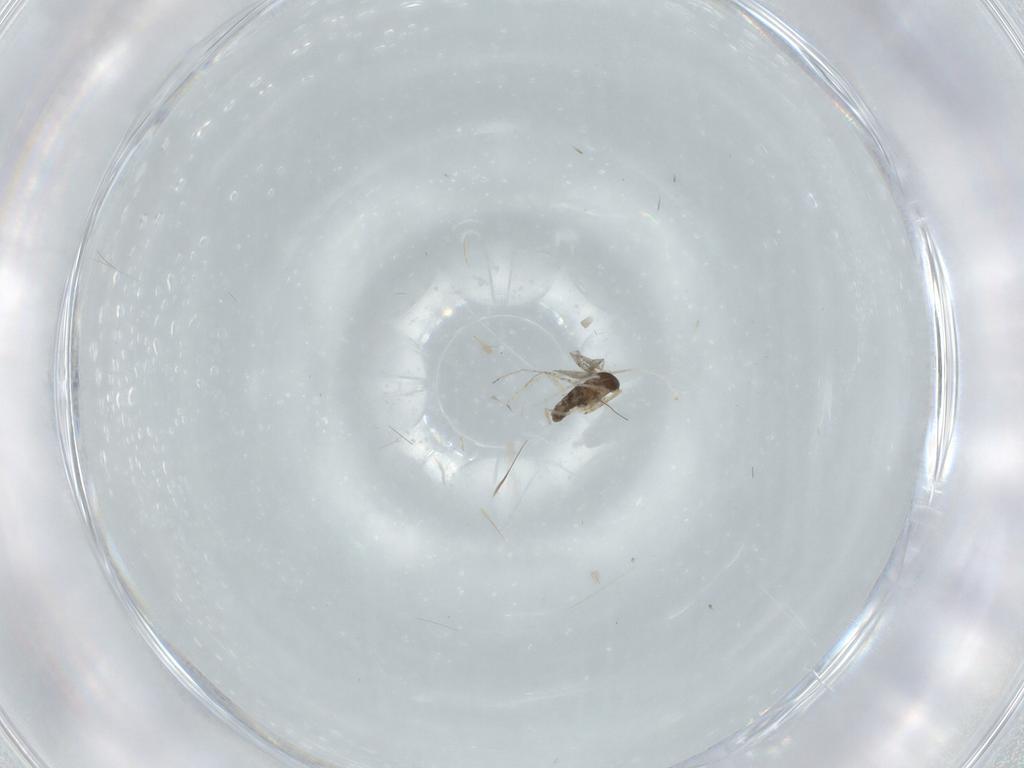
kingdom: Animalia
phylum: Arthropoda
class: Insecta
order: Diptera
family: Cecidomyiidae
